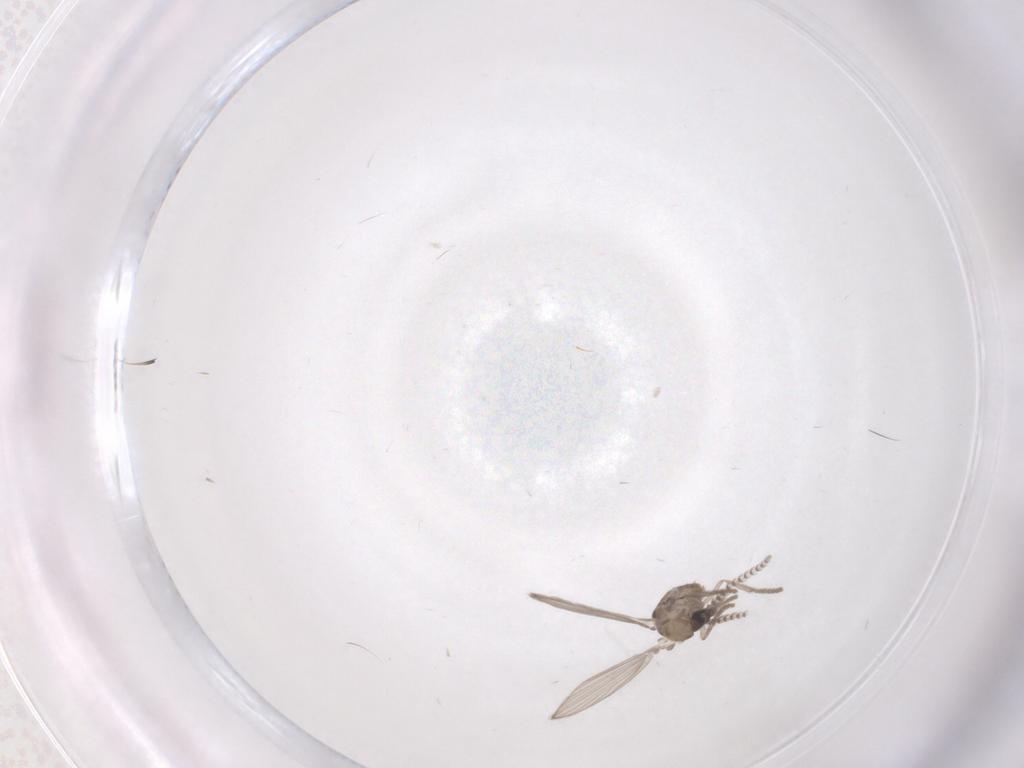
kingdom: Animalia
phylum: Arthropoda
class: Insecta
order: Diptera
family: Psychodidae
